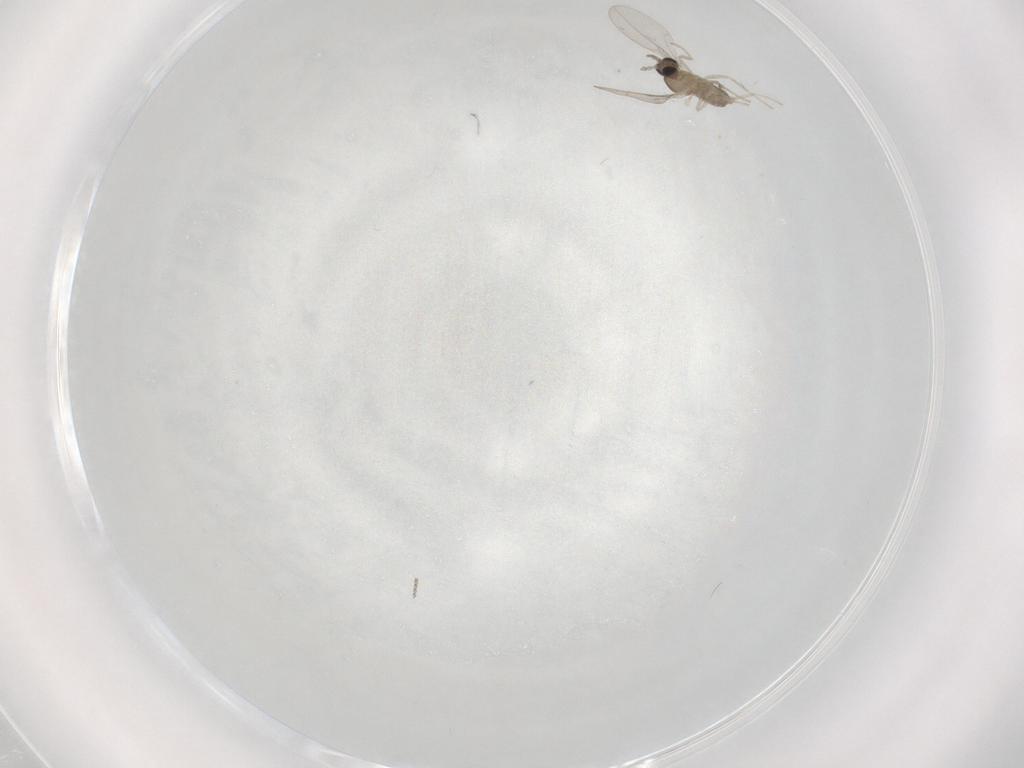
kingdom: Animalia
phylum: Arthropoda
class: Insecta
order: Diptera
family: Cecidomyiidae
